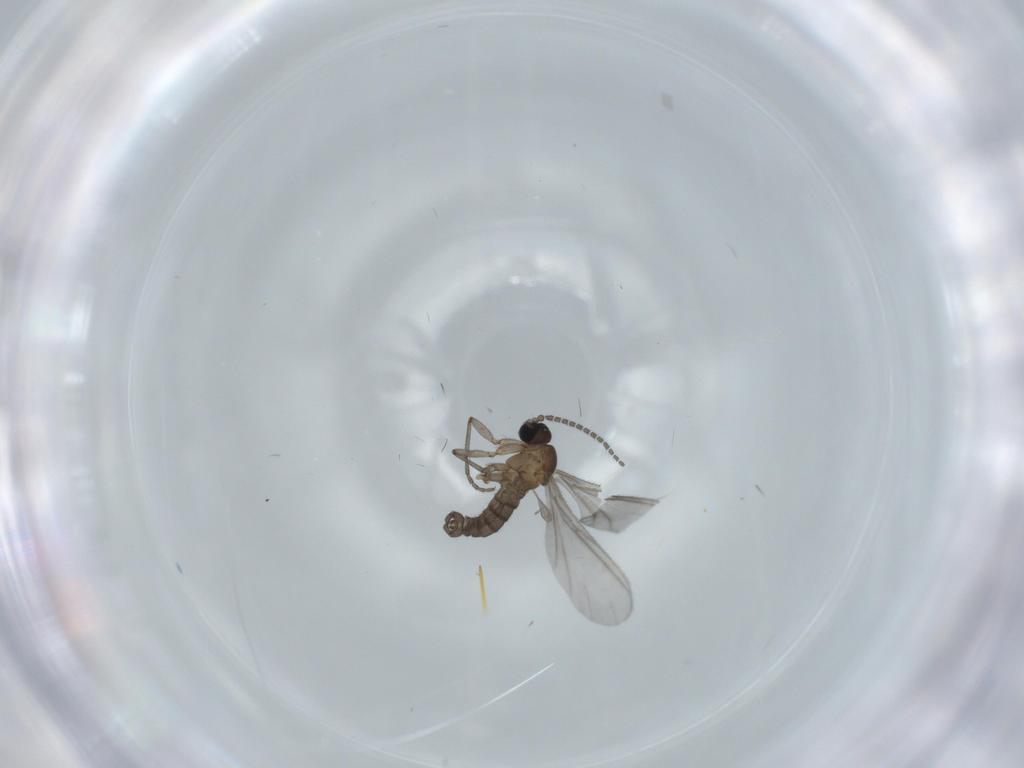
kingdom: Animalia
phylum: Arthropoda
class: Insecta
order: Diptera
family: Sciaridae
